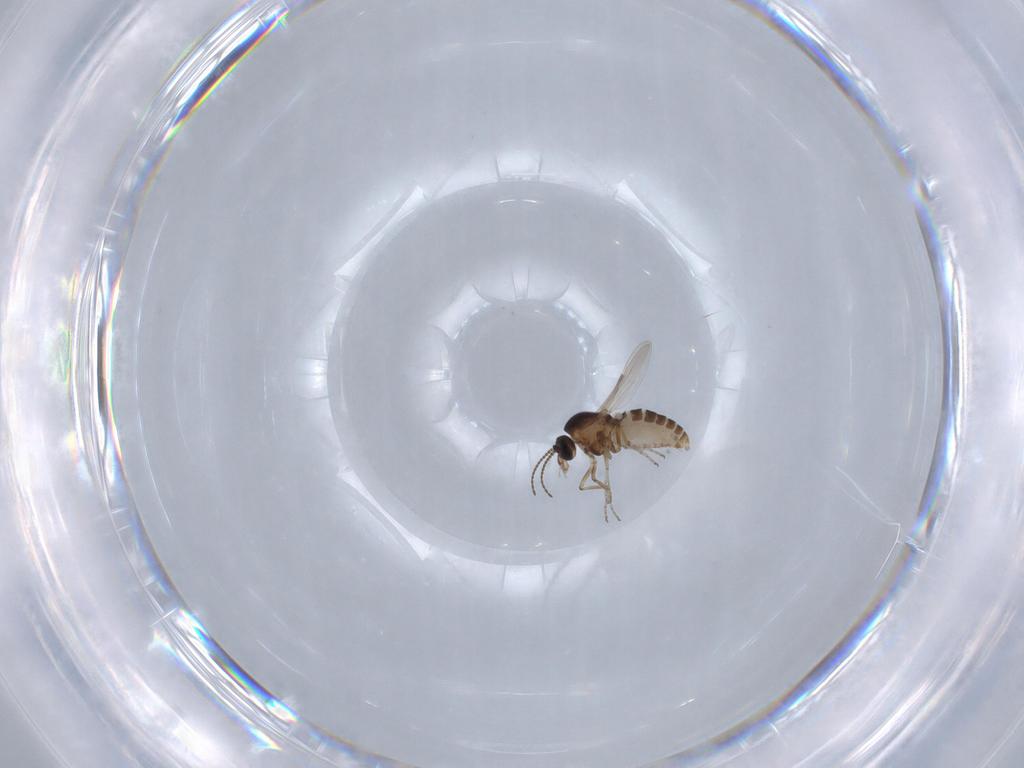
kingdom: Animalia
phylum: Arthropoda
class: Insecta
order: Diptera
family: Ceratopogonidae
